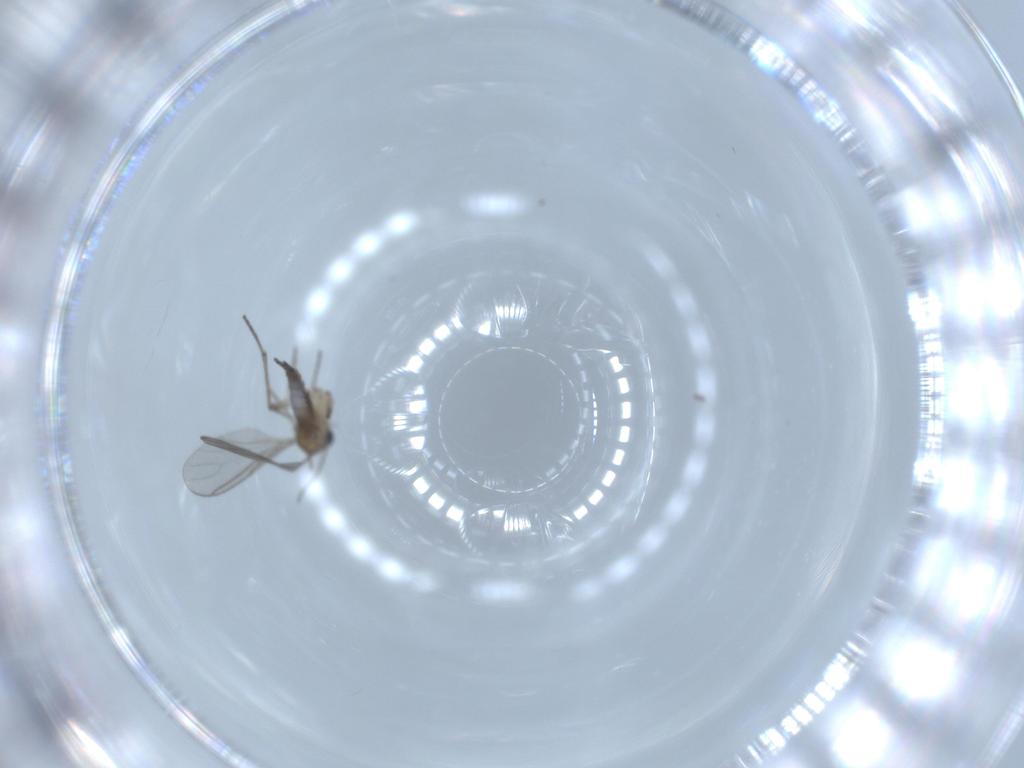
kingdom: Animalia
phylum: Arthropoda
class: Insecta
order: Diptera
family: Sciaridae
